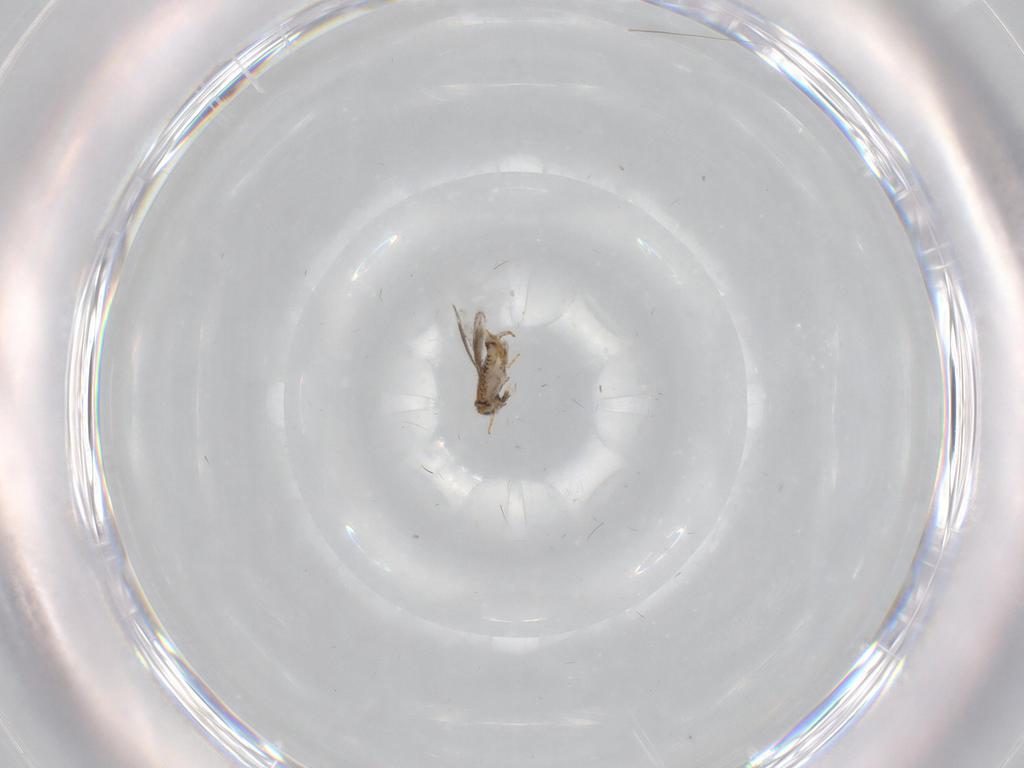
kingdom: Animalia
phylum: Arthropoda
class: Insecta
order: Hymenoptera
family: Aphelinidae
